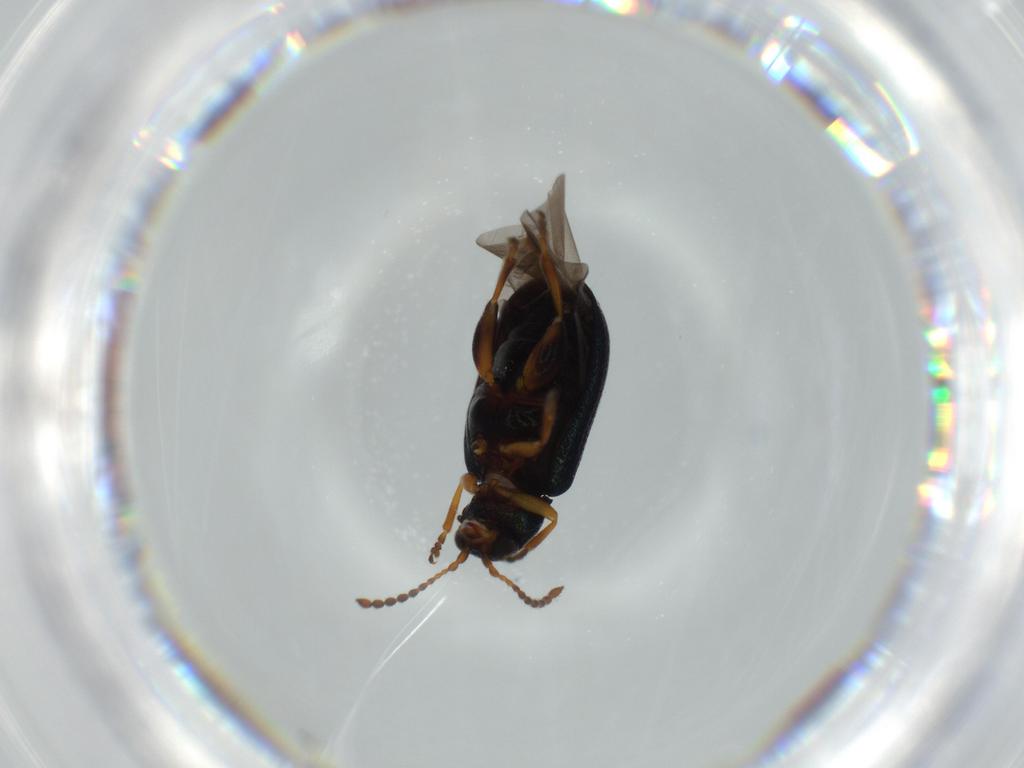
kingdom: Animalia
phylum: Arthropoda
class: Insecta
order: Coleoptera
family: Chrysomelidae
